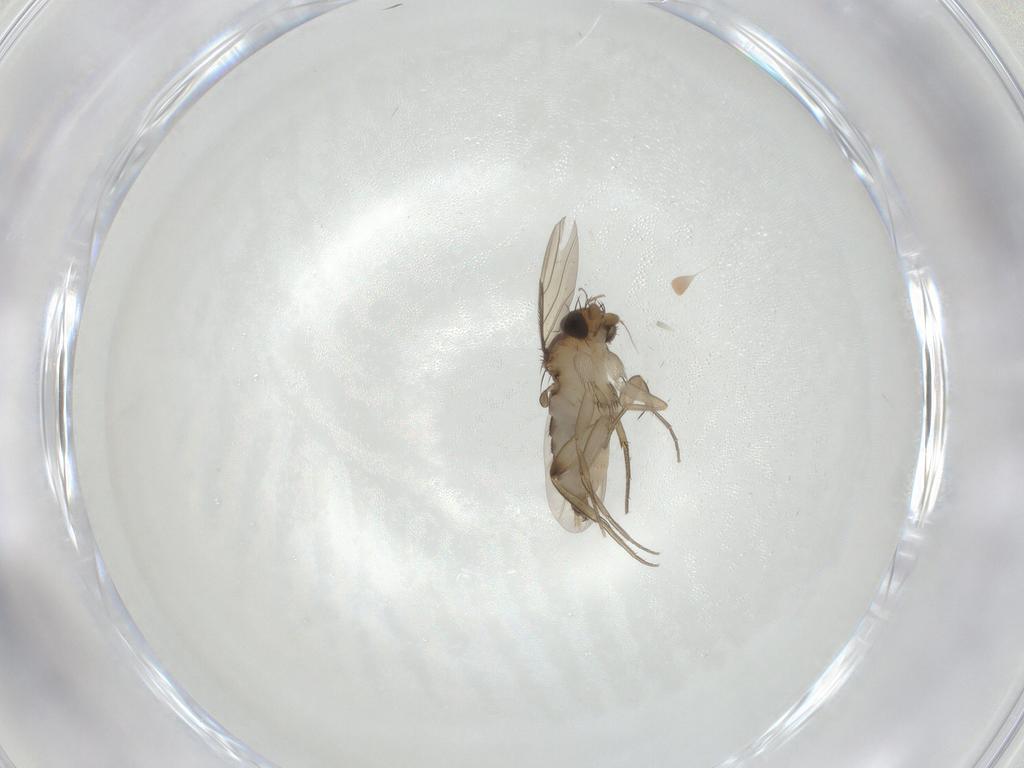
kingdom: Animalia
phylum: Arthropoda
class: Insecta
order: Diptera
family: Phoridae
